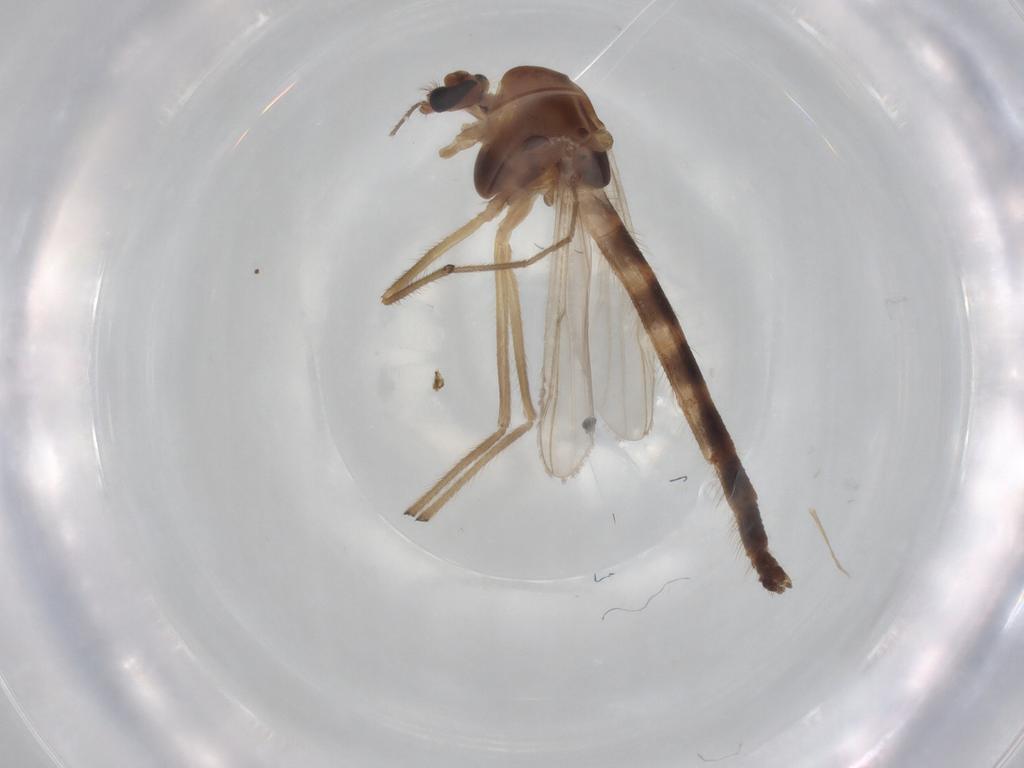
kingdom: Animalia
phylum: Arthropoda
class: Insecta
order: Diptera
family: Chironomidae
